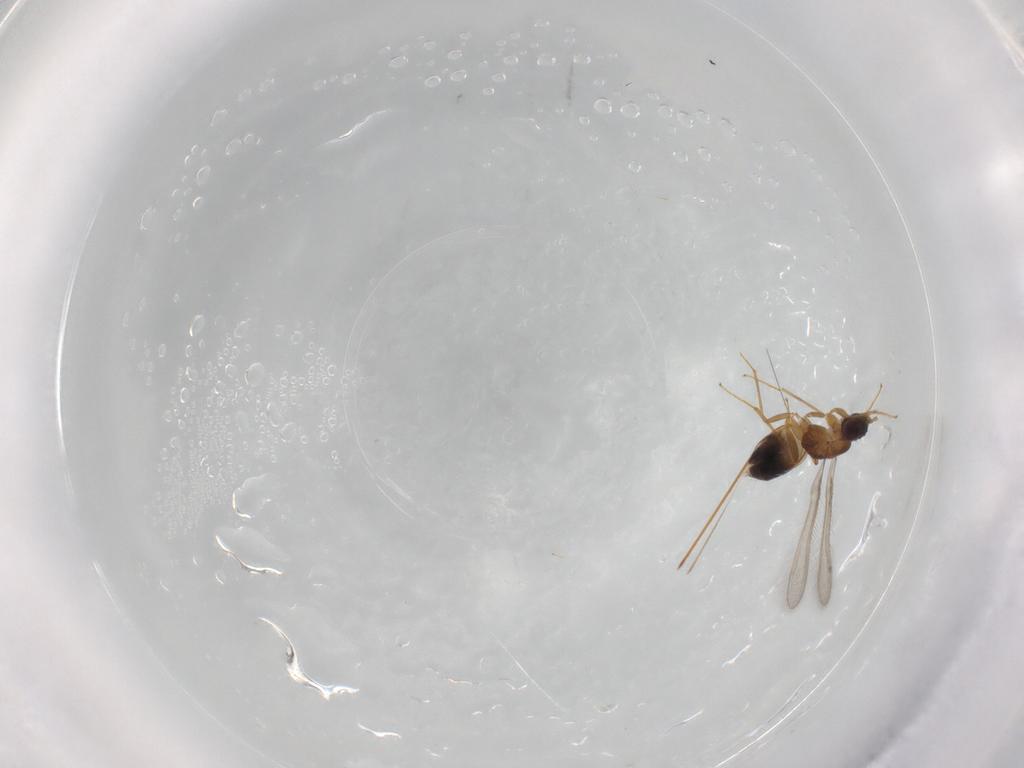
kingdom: Animalia
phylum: Arthropoda
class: Insecta
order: Hymenoptera
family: Mymaridae
